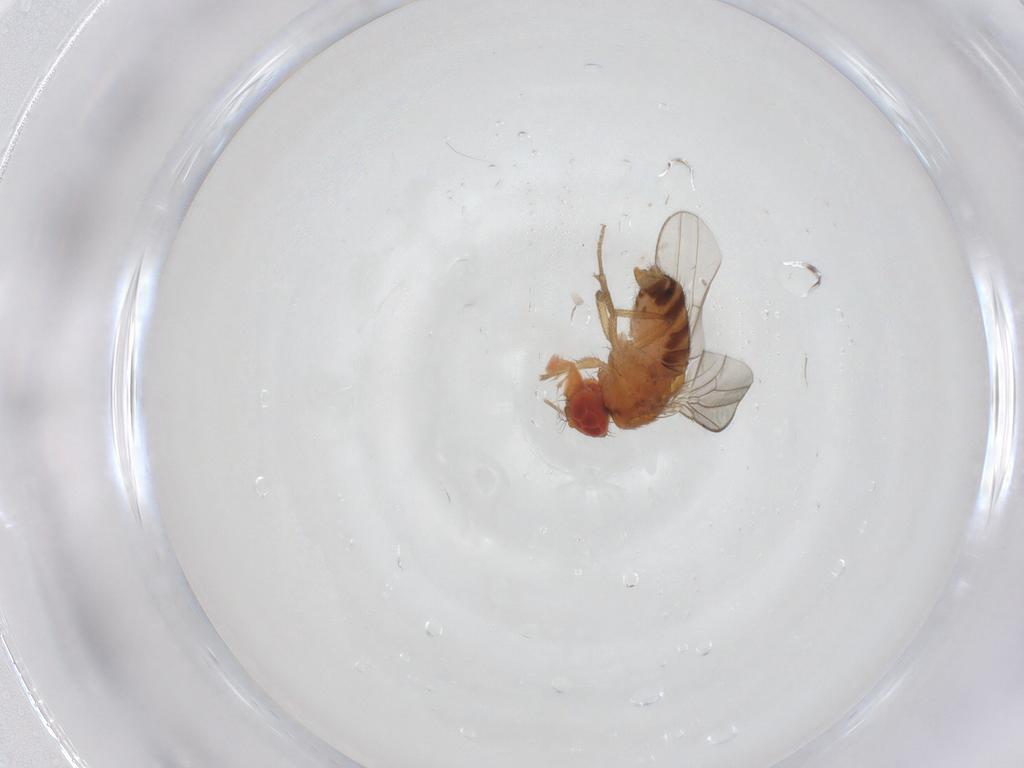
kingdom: Animalia
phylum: Arthropoda
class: Insecta
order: Diptera
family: Drosophilidae
